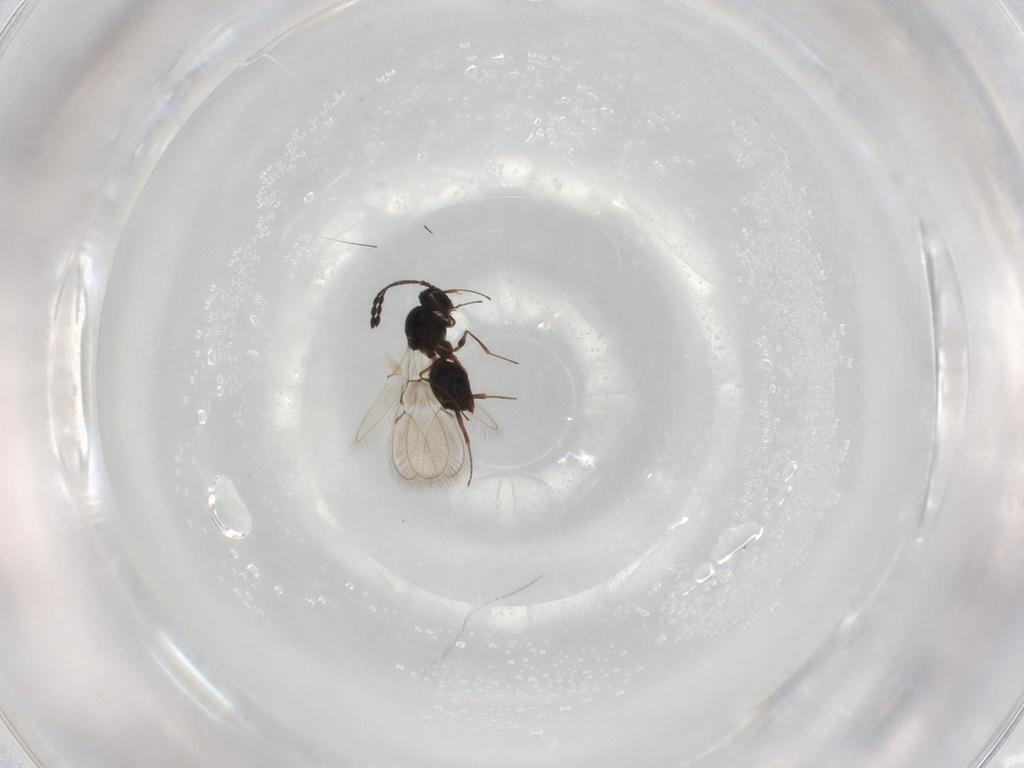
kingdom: Animalia
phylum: Arthropoda
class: Insecta
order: Hymenoptera
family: Figitidae
